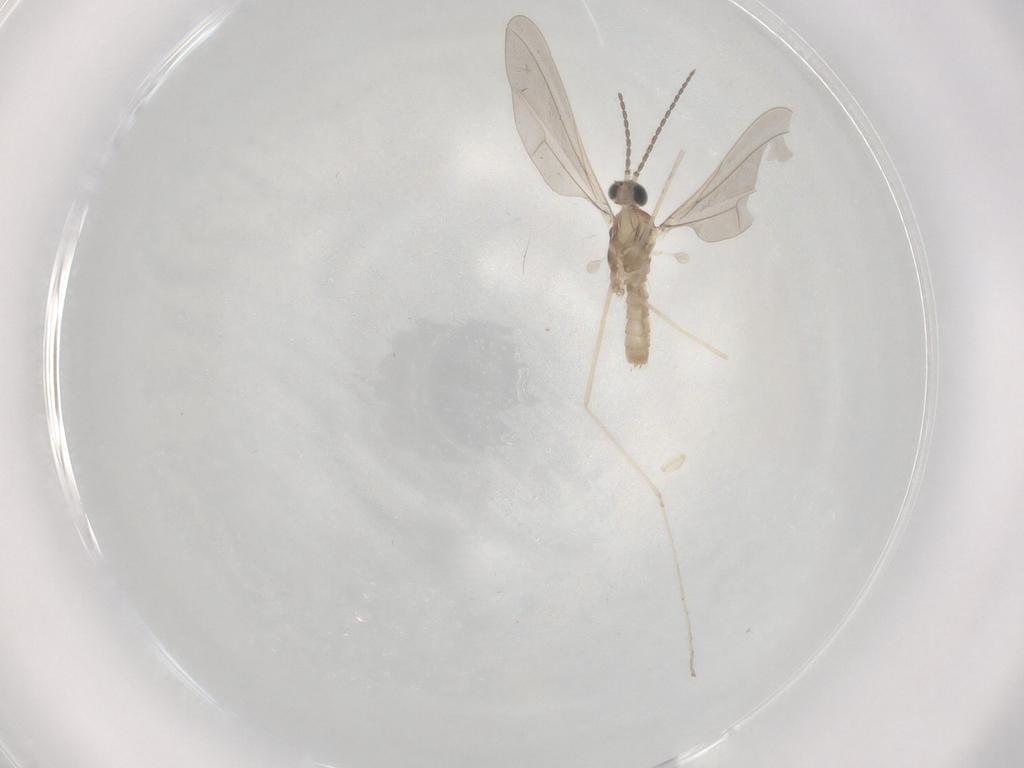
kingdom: Animalia
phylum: Arthropoda
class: Insecta
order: Diptera
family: Cecidomyiidae
